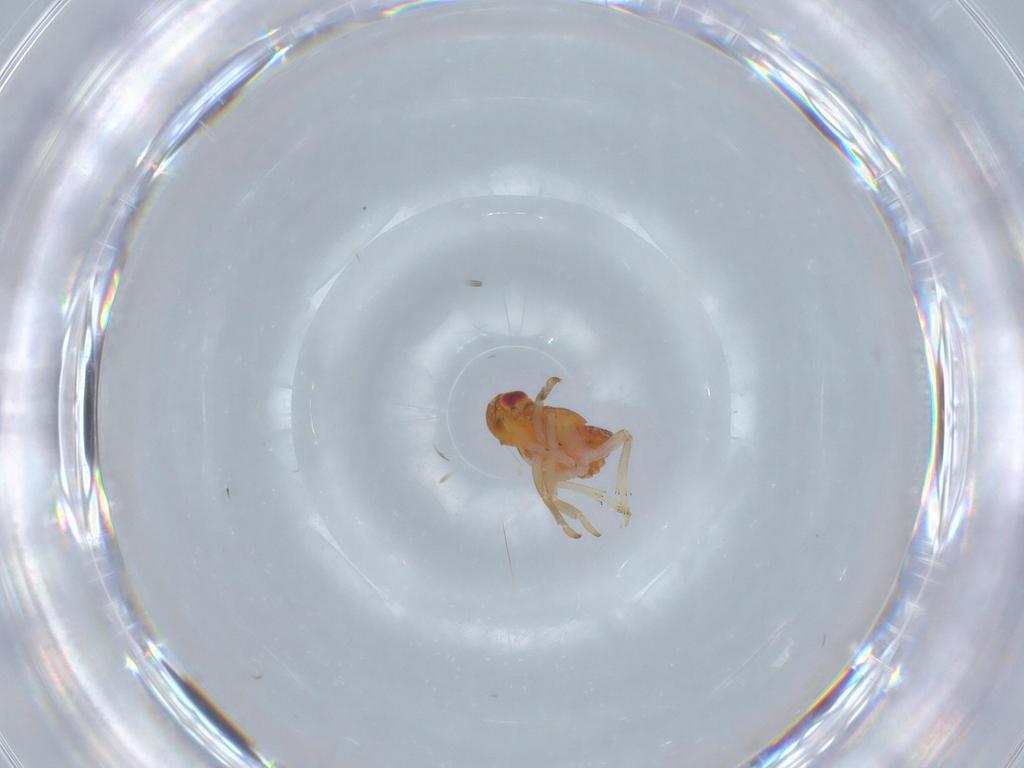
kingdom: Animalia
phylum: Arthropoda
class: Insecta
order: Hemiptera
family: Fulgoroidea_incertae_sedis
